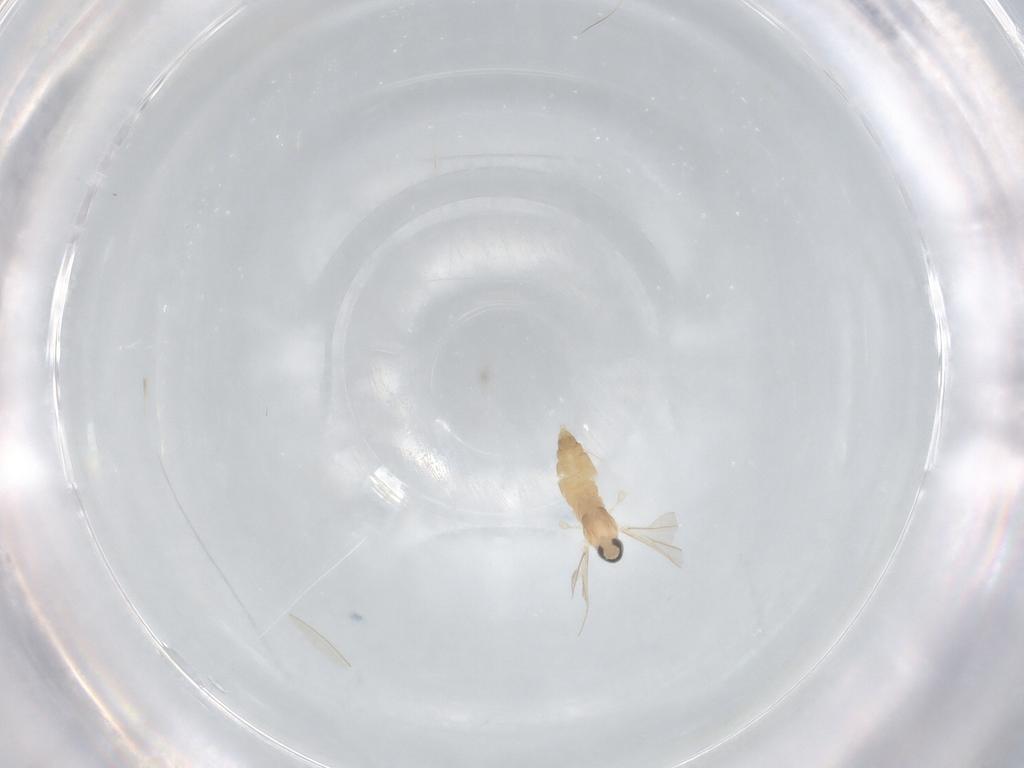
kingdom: Animalia
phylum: Arthropoda
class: Insecta
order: Diptera
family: Cecidomyiidae
